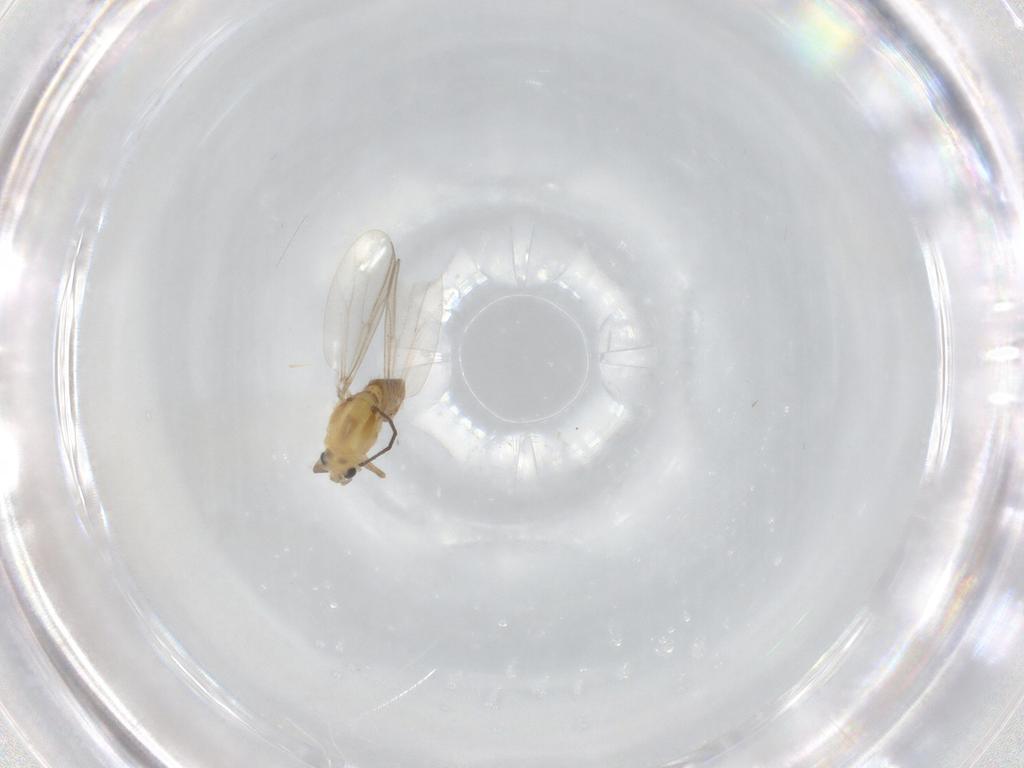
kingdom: Animalia
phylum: Arthropoda
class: Insecta
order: Diptera
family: Chironomidae
